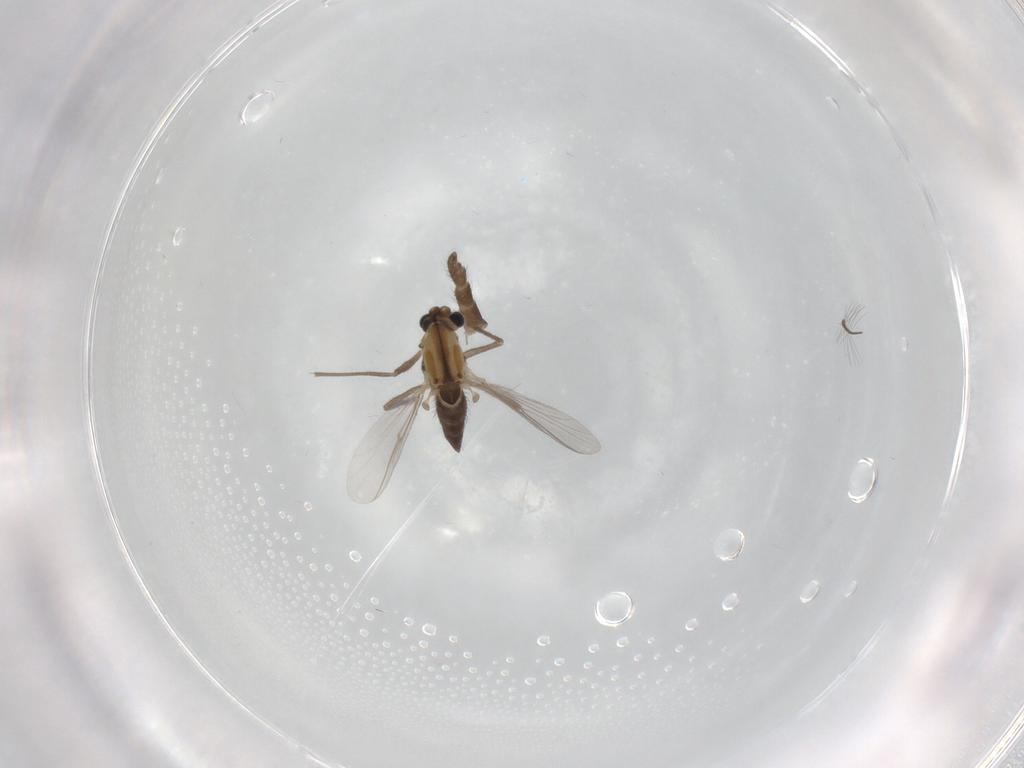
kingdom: Animalia
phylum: Arthropoda
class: Insecta
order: Diptera
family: Chironomidae
